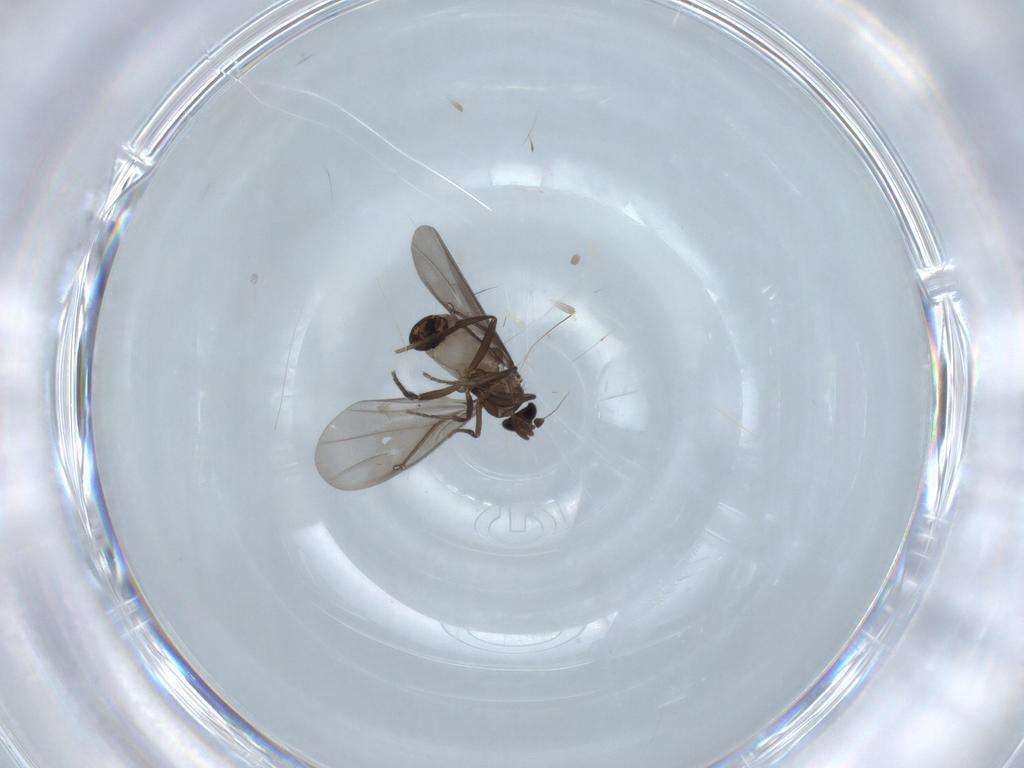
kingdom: Animalia
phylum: Arthropoda
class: Insecta
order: Diptera
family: Phoridae
